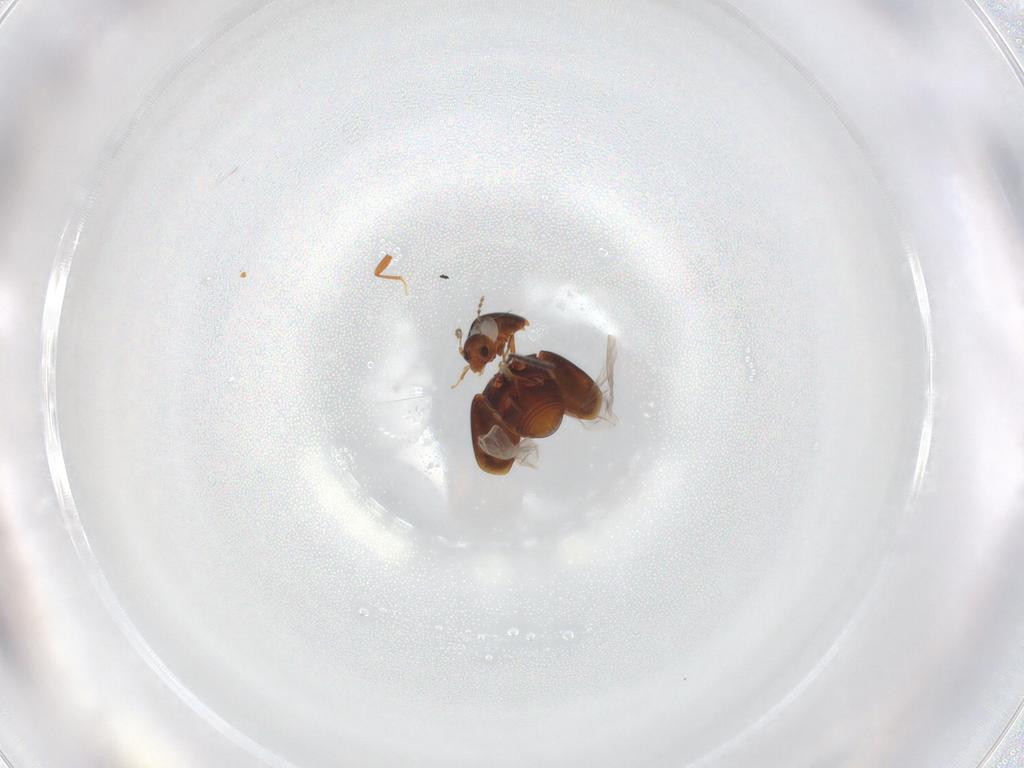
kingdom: Animalia
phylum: Arthropoda
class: Insecta
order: Coleoptera
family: Staphylinidae
